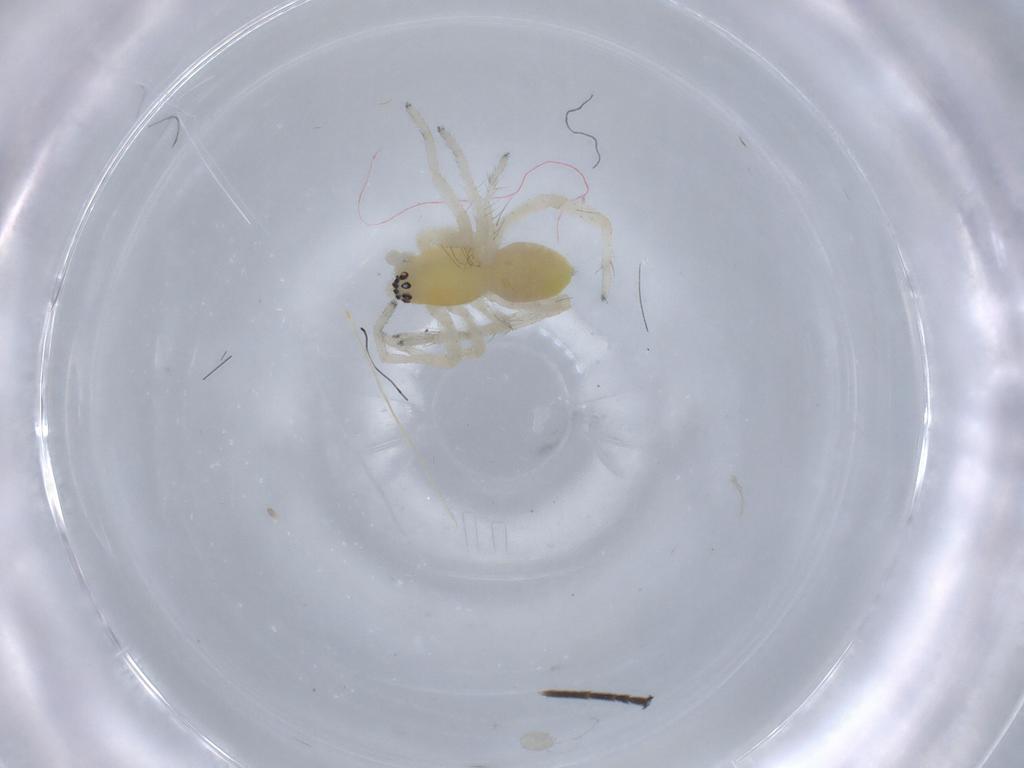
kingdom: Animalia
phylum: Arthropoda
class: Arachnida
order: Araneae
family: Anyphaenidae
